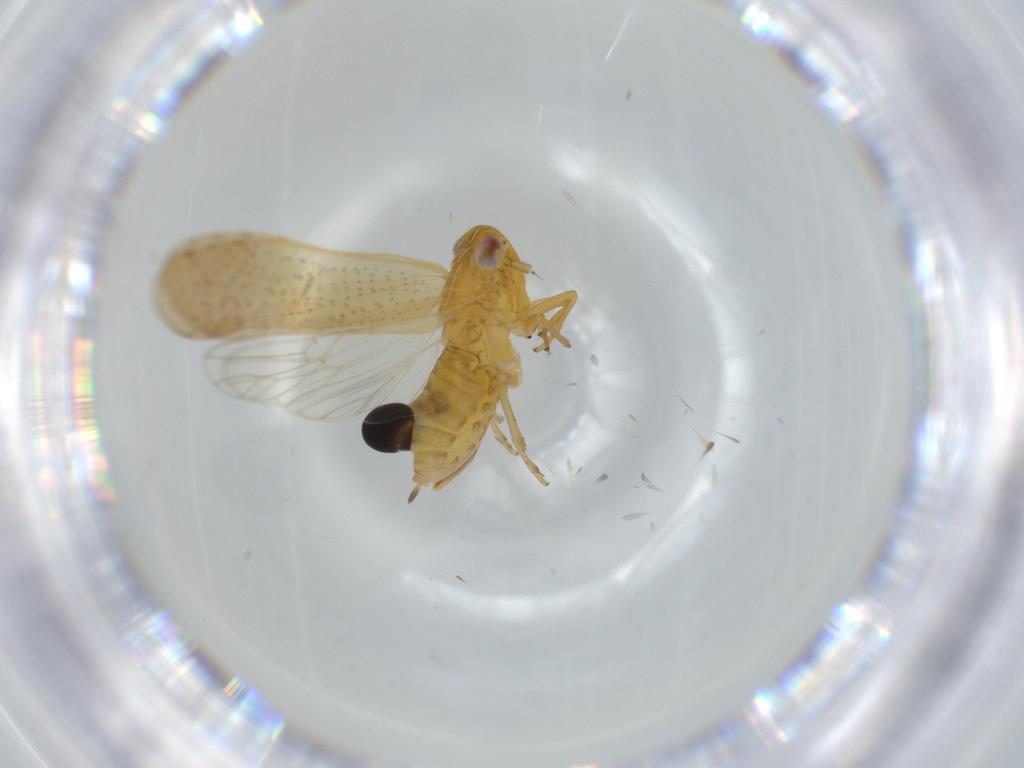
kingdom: Animalia
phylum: Arthropoda
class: Insecta
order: Hemiptera
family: Delphacidae
